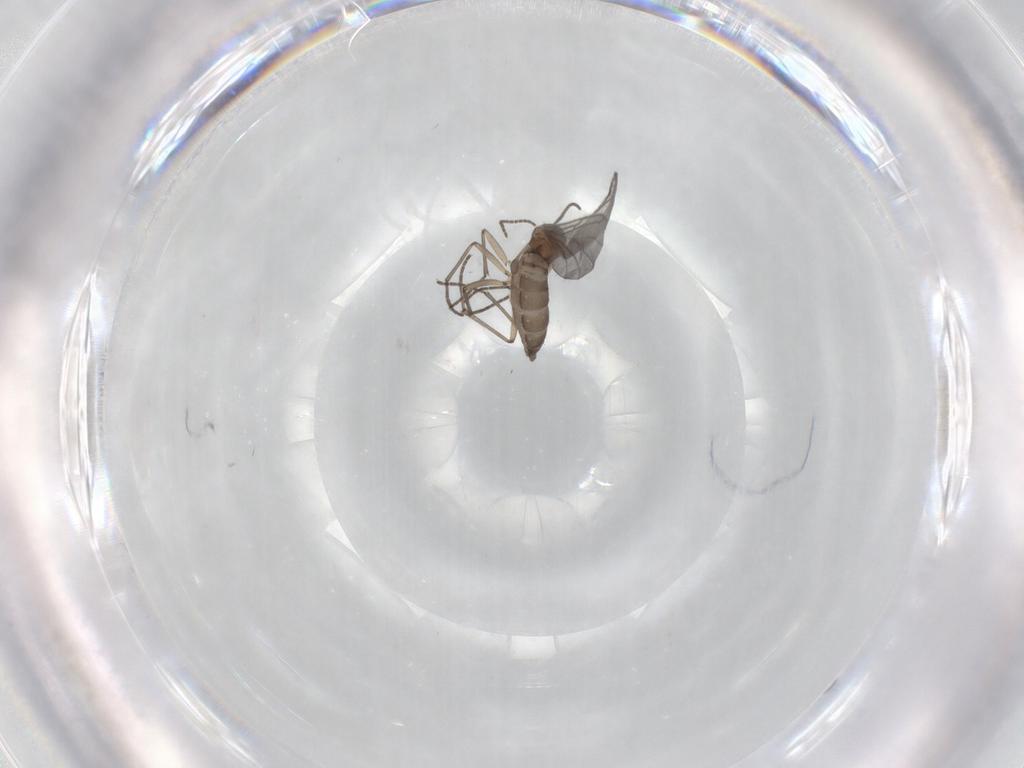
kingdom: Animalia
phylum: Arthropoda
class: Insecta
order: Diptera
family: Sciaridae
